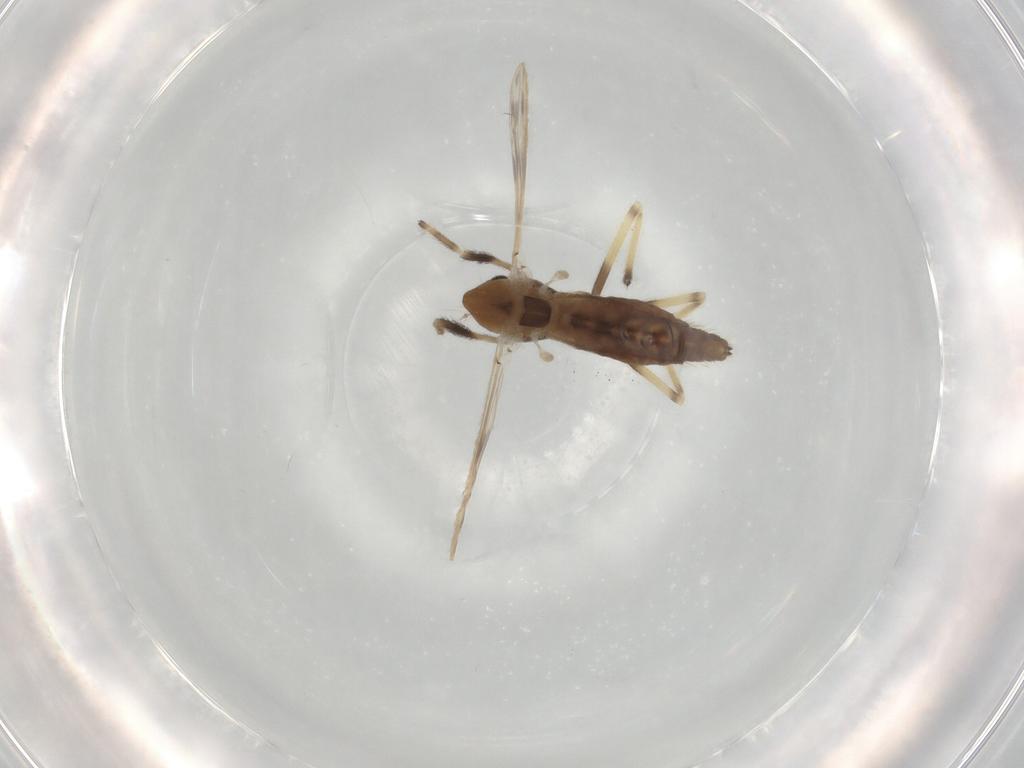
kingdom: Animalia
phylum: Arthropoda
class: Insecta
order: Diptera
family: Chironomidae
